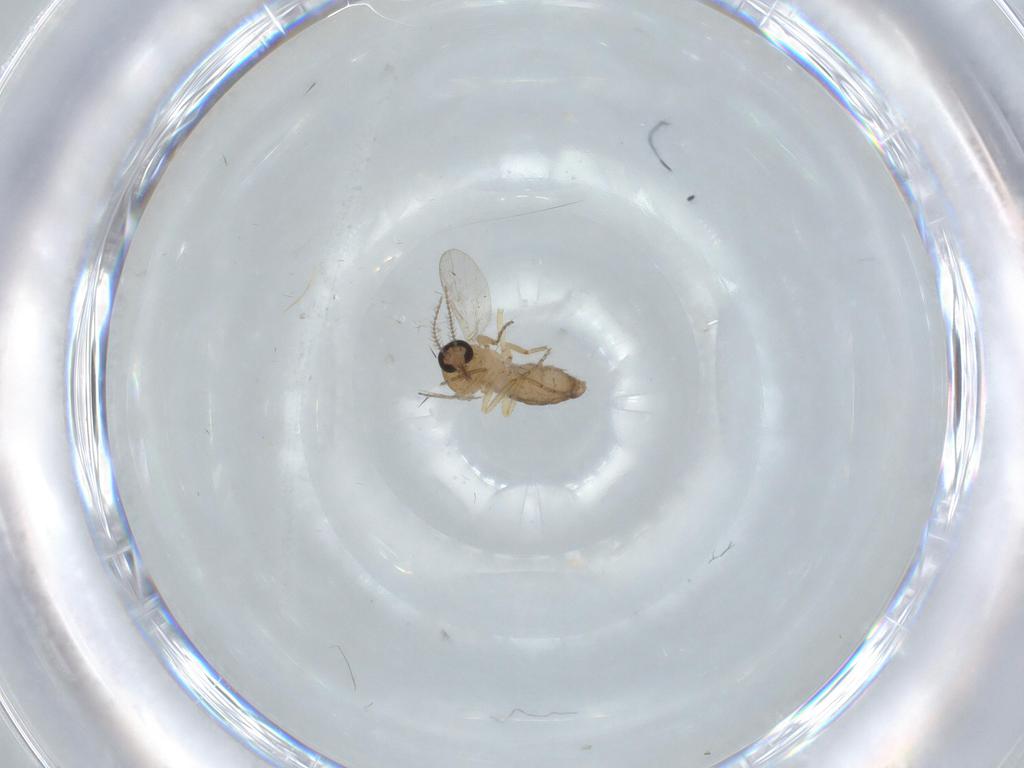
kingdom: Animalia
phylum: Arthropoda
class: Insecta
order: Diptera
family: Ceratopogonidae
